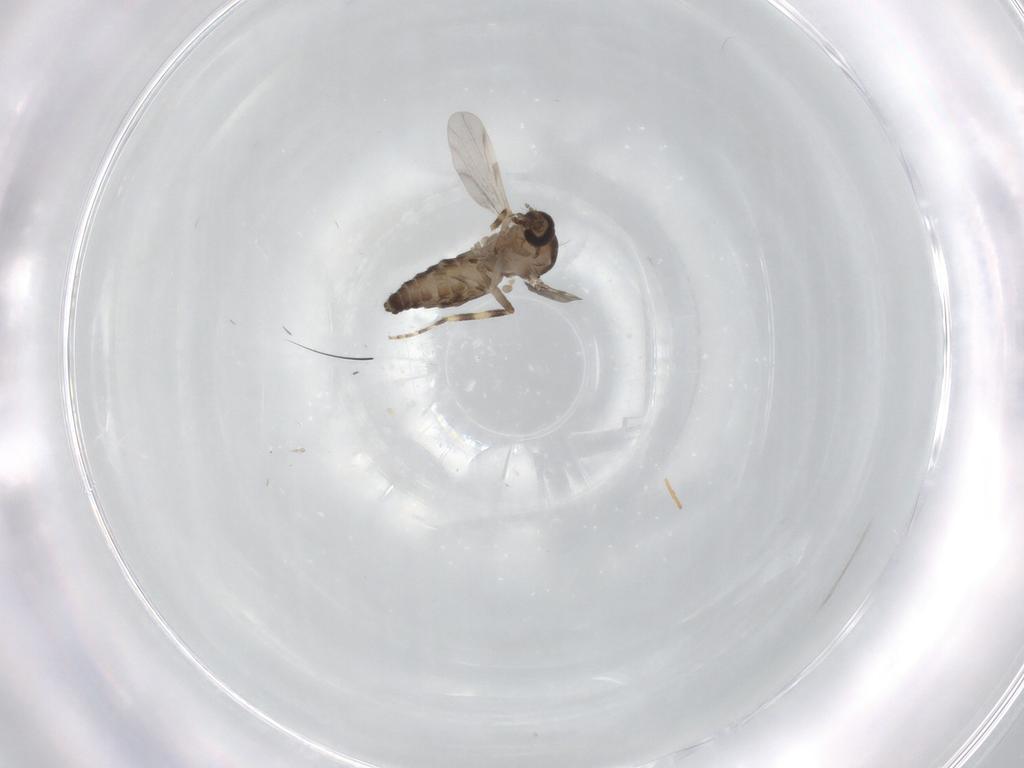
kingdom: Animalia
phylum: Arthropoda
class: Insecta
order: Diptera
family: Ceratopogonidae
